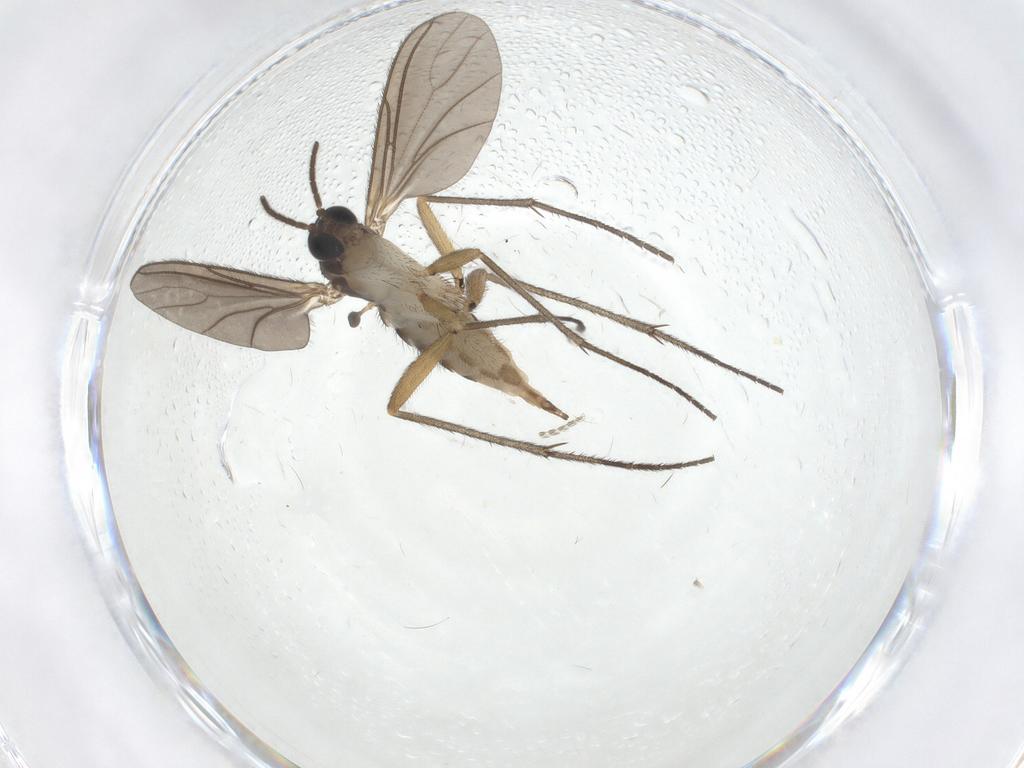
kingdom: Animalia
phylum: Arthropoda
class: Insecta
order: Diptera
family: Sciaridae
